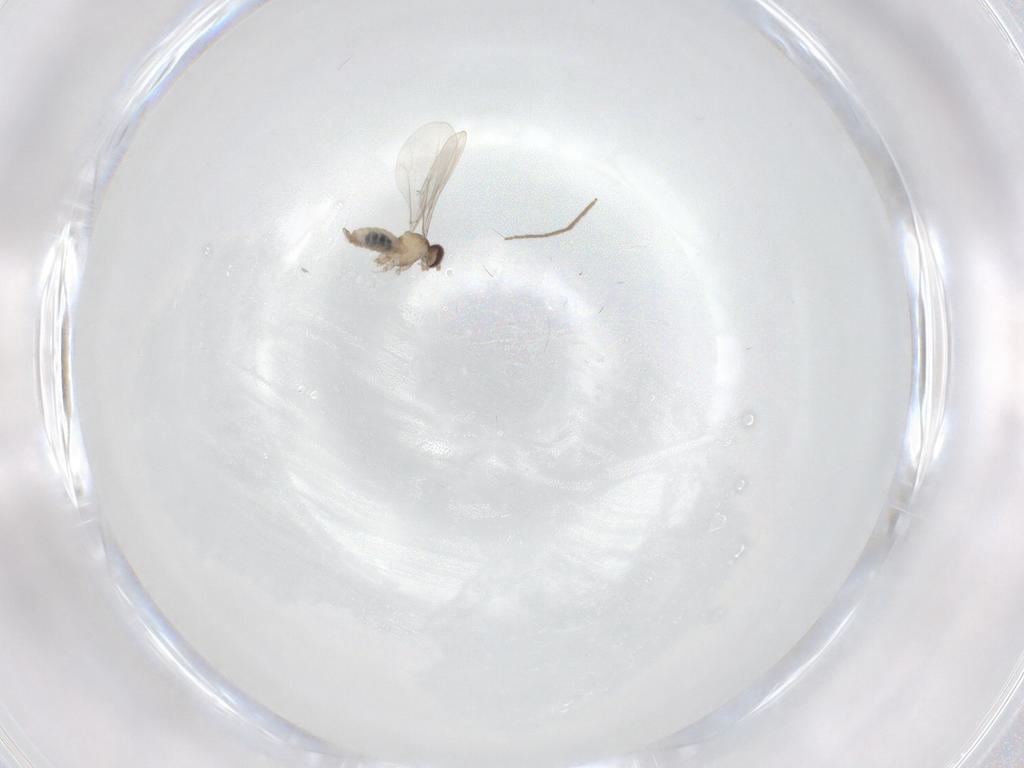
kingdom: Animalia
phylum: Arthropoda
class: Insecta
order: Diptera
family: Cecidomyiidae
